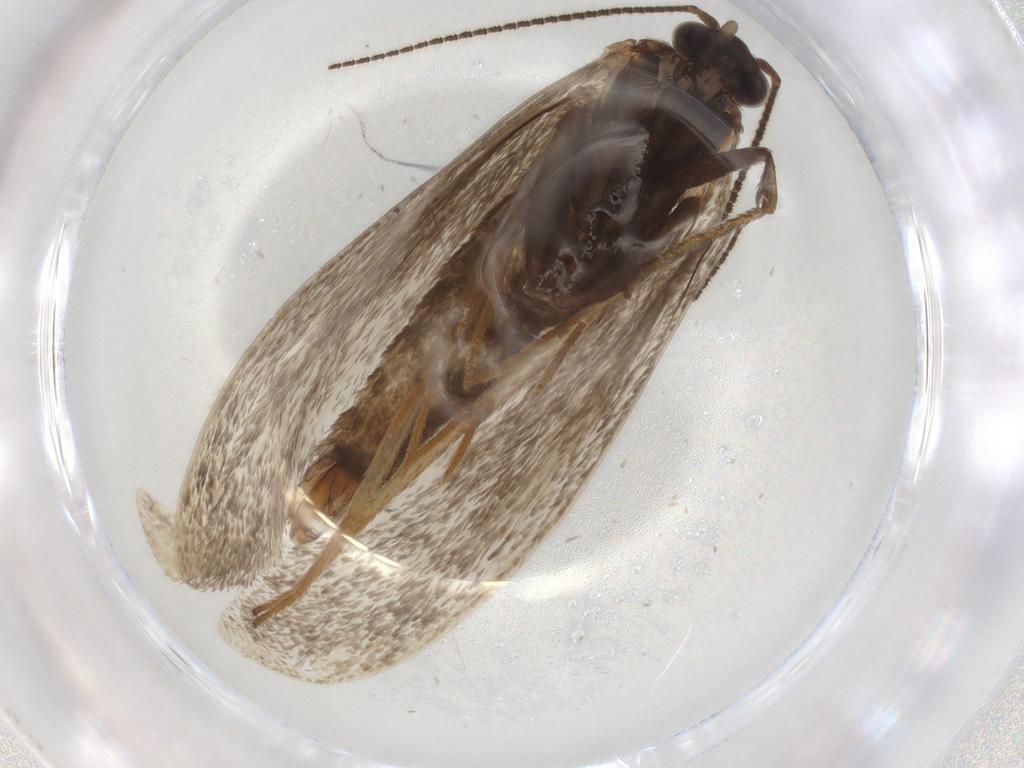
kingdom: Animalia
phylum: Arthropoda
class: Insecta
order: Lepidoptera
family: Crambidae
